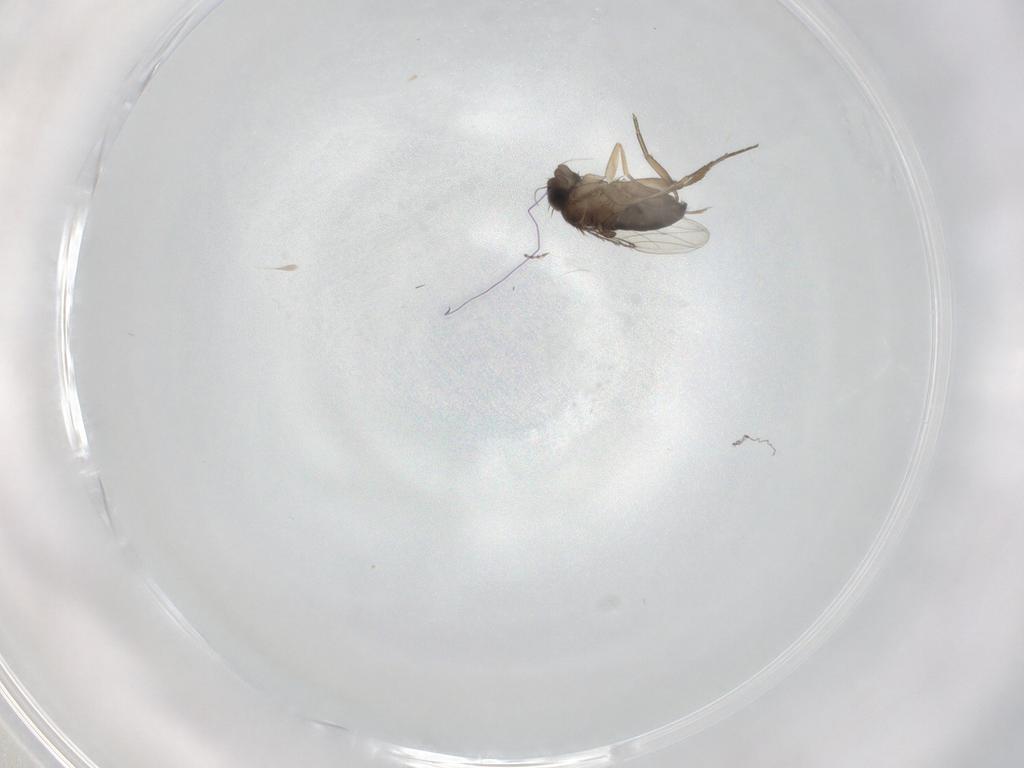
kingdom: Animalia
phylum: Arthropoda
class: Insecta
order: Diptera
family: Phoridae
